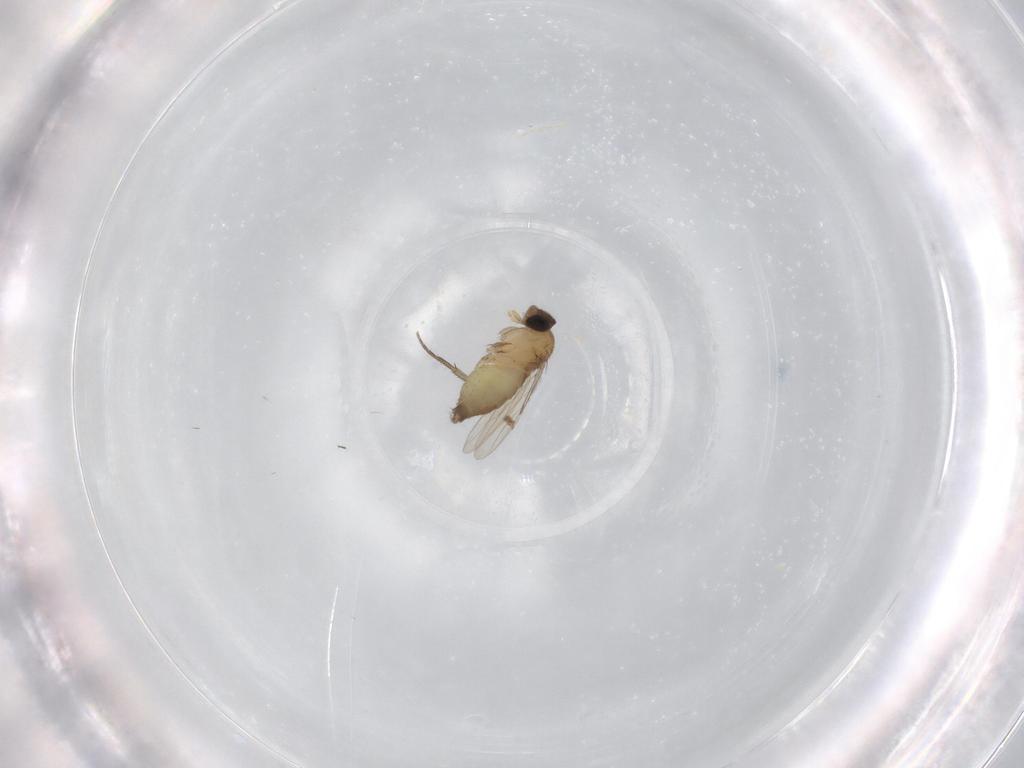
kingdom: Animalia
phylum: Arthropoda
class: Insecta
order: Diptera
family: Phoridae
